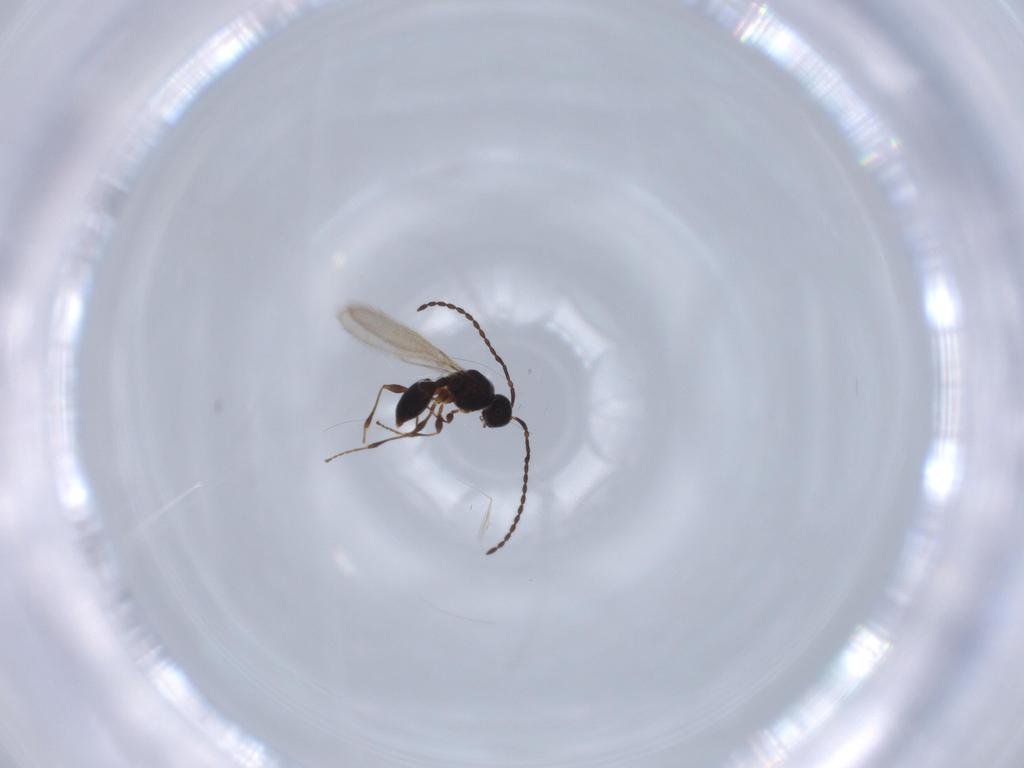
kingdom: Animalia
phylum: Arthropoda
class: Insecta
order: Hymenoptera
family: Diapriidae
